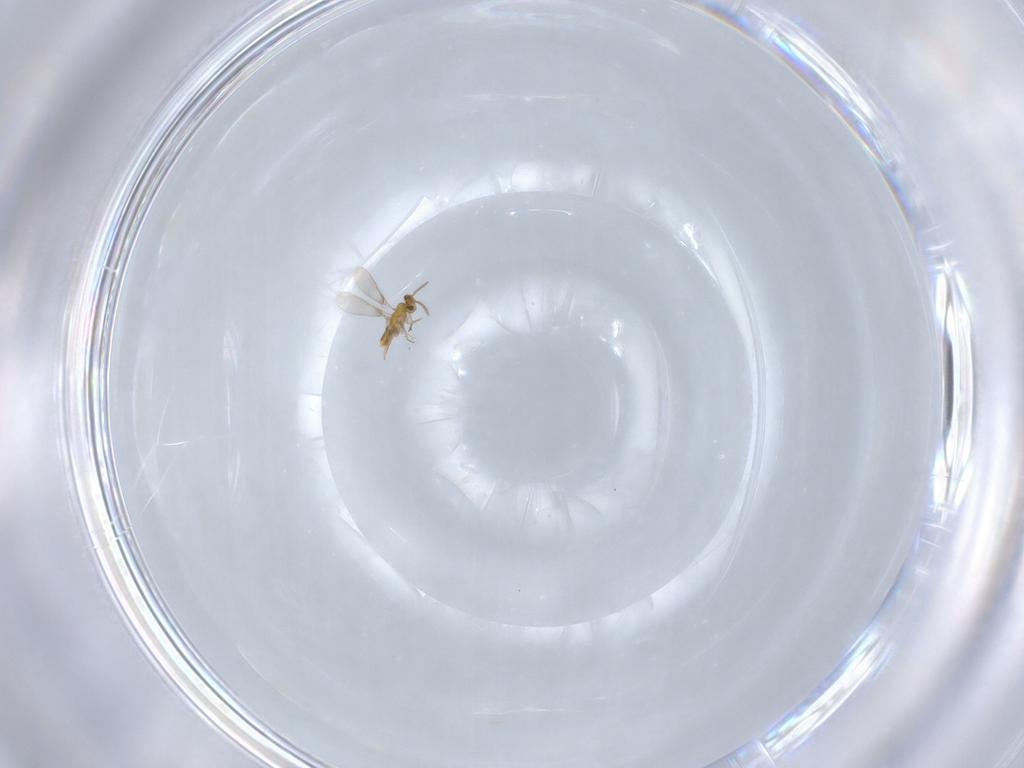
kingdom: Animalia
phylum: Arthropoda
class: Insecta
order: Hymenoptera
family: Aphelinidae
